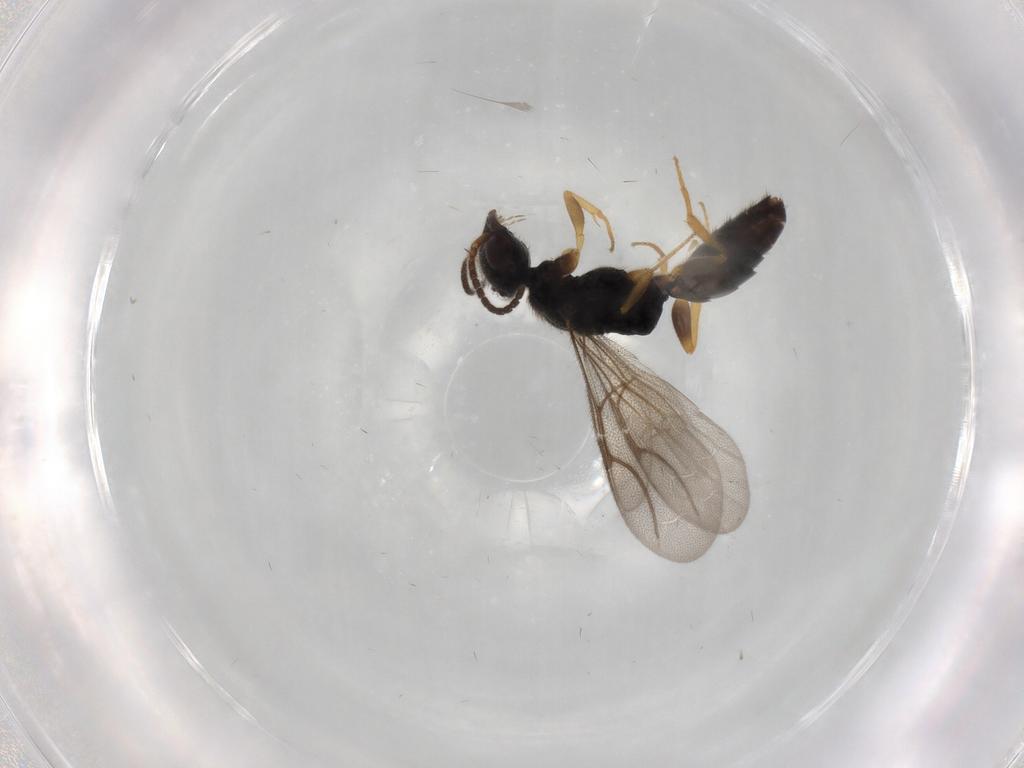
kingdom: Animalia
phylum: Arthropoda
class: Insecta
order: Hymenoptera
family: Bethylidae
